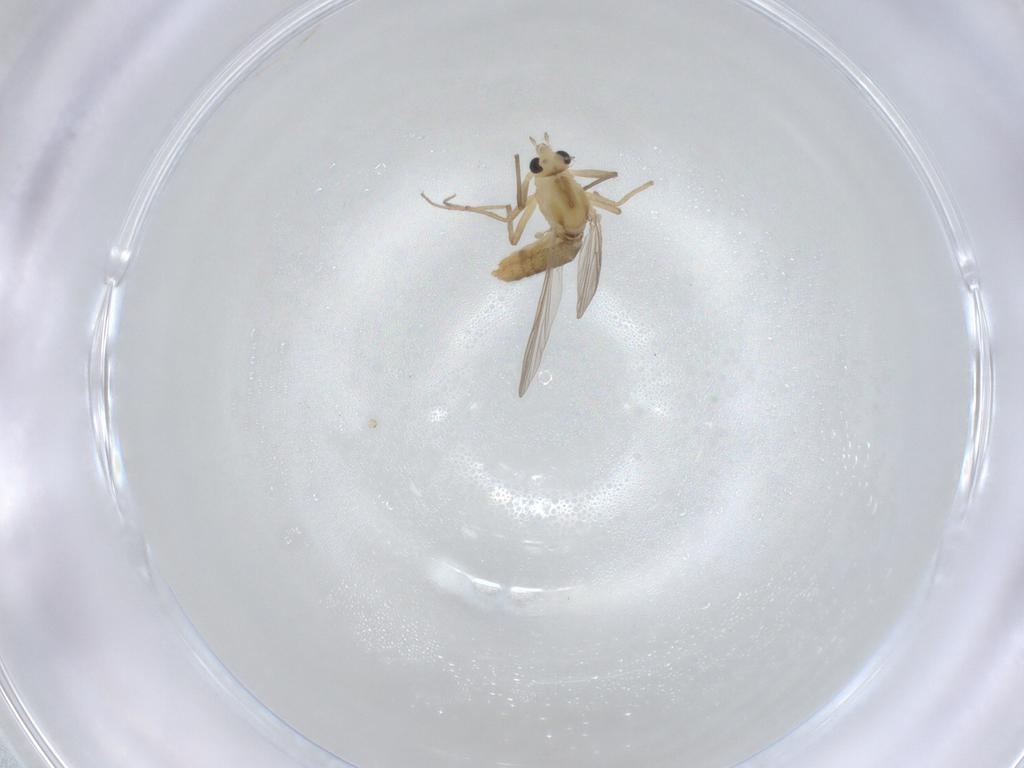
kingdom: Animalia
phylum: Arthropoda
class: Insecta
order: Diptera
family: Chironomidae
